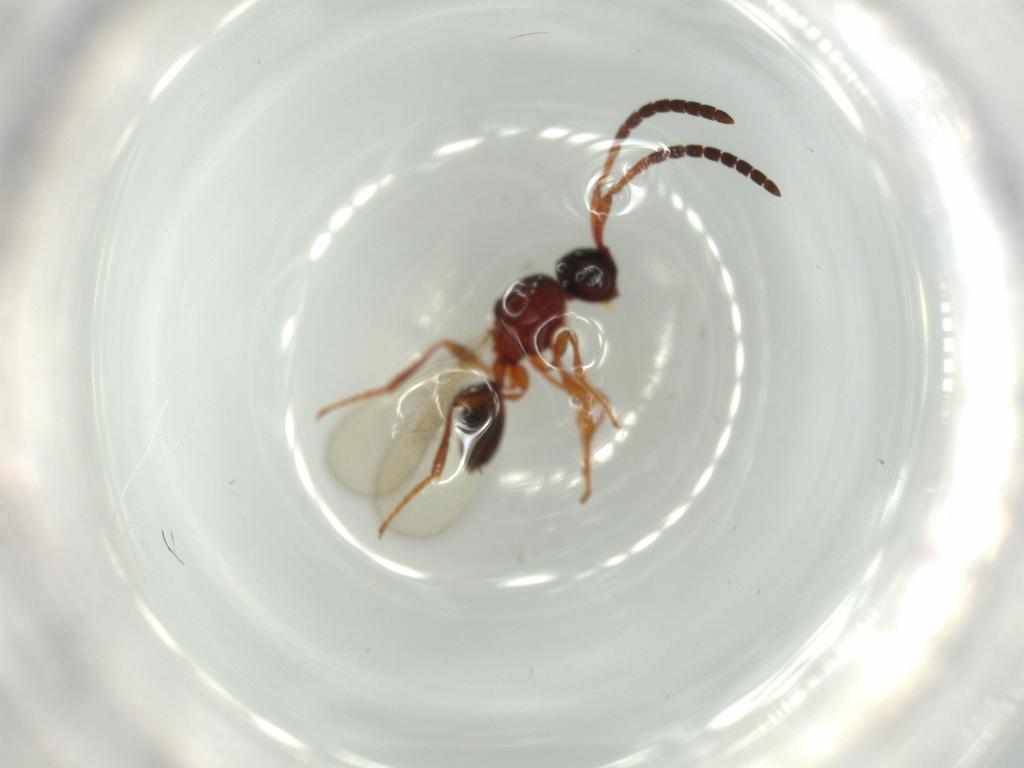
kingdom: Animalia
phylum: Arthropoda
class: Insecta
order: Hymenoptera
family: Diapriidae
